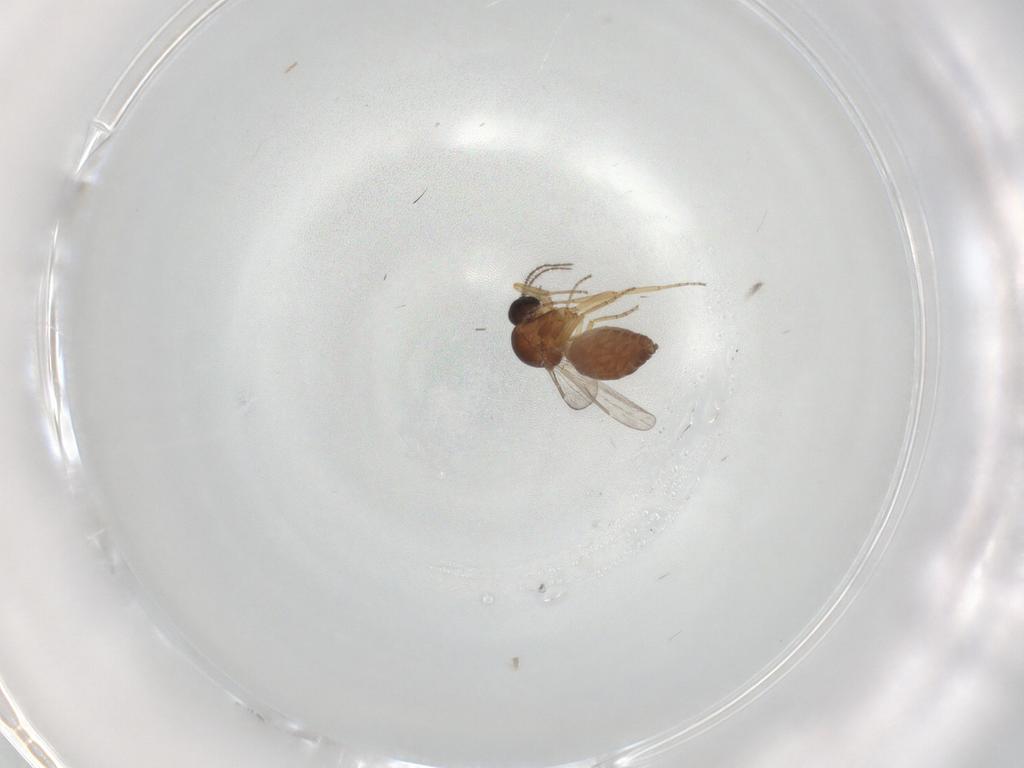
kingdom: Animalia
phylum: Arthropoda
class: Insecta
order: Diptera
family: Ceratopogonidae
